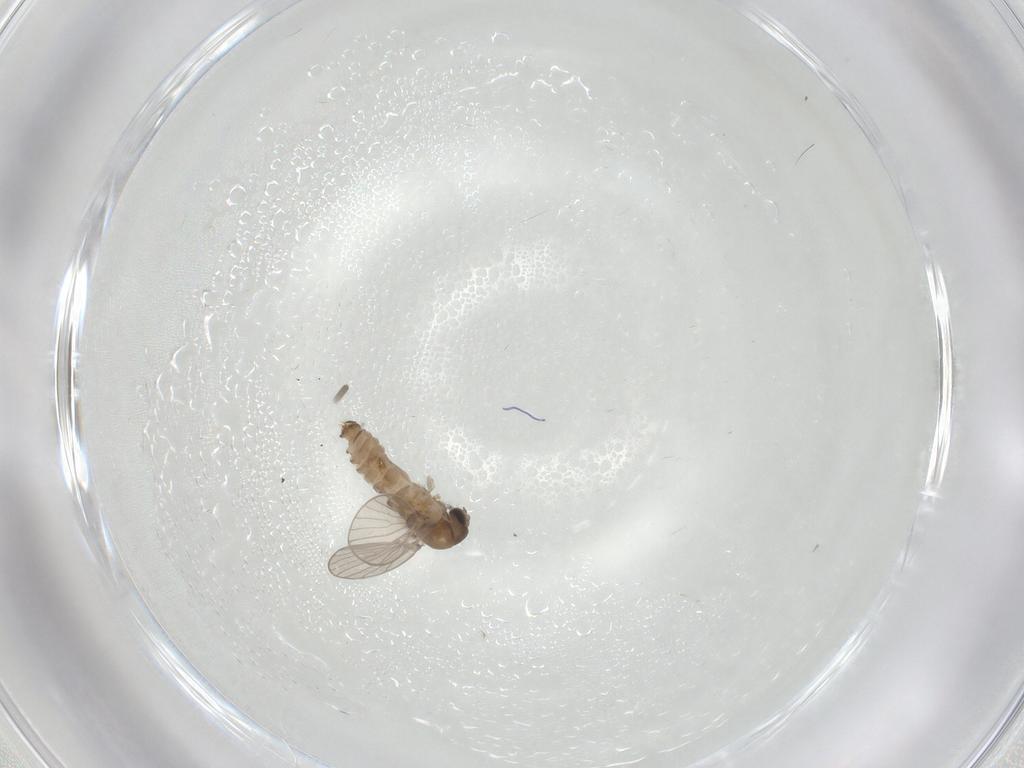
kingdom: Animalia
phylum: Arthropoda
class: Insecta
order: Diptera
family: Psychodidae
